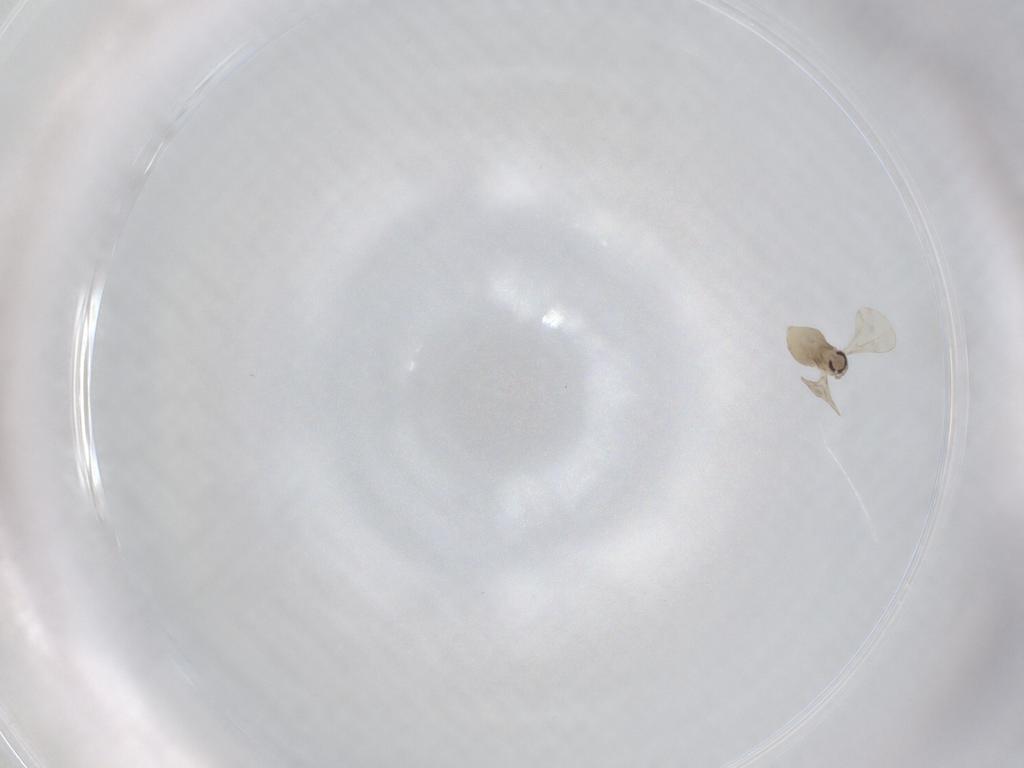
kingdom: Animalia
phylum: Arthropoda
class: Insecta
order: Diptera
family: Cecidomyiidae
